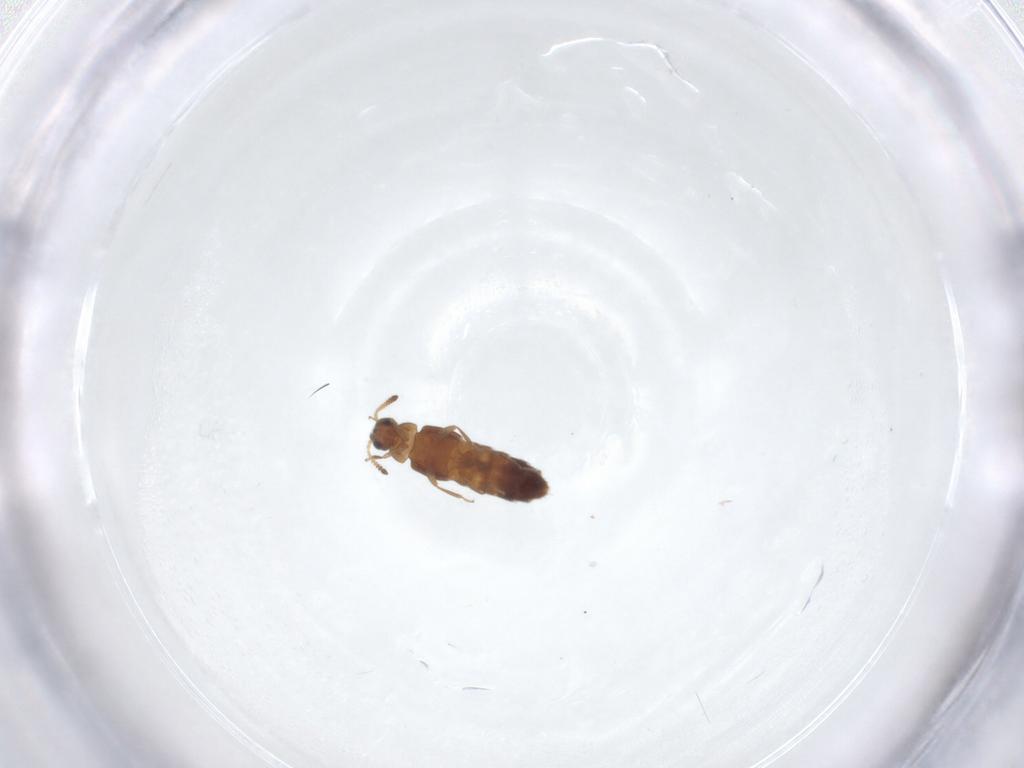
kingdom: Animalia
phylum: Arthropoda
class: Insecta
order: Coleoptera
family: Staphylinidae
